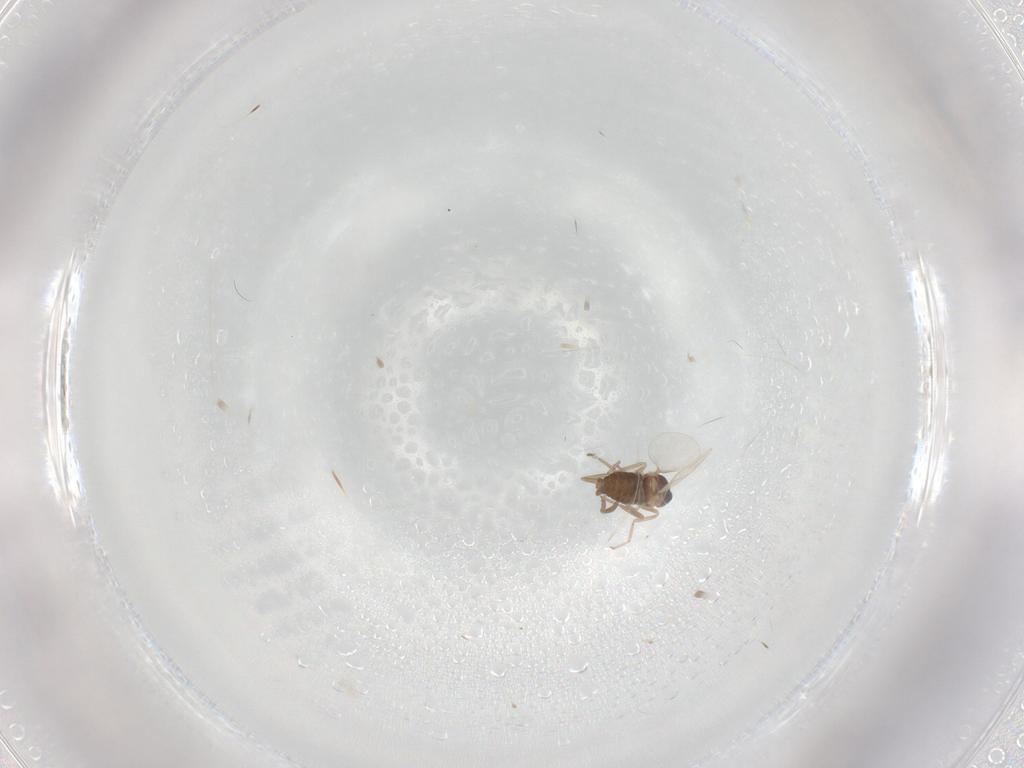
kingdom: Animalia
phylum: Arthropoda
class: Insecta
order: Diptera
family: Cecidomyiidae
